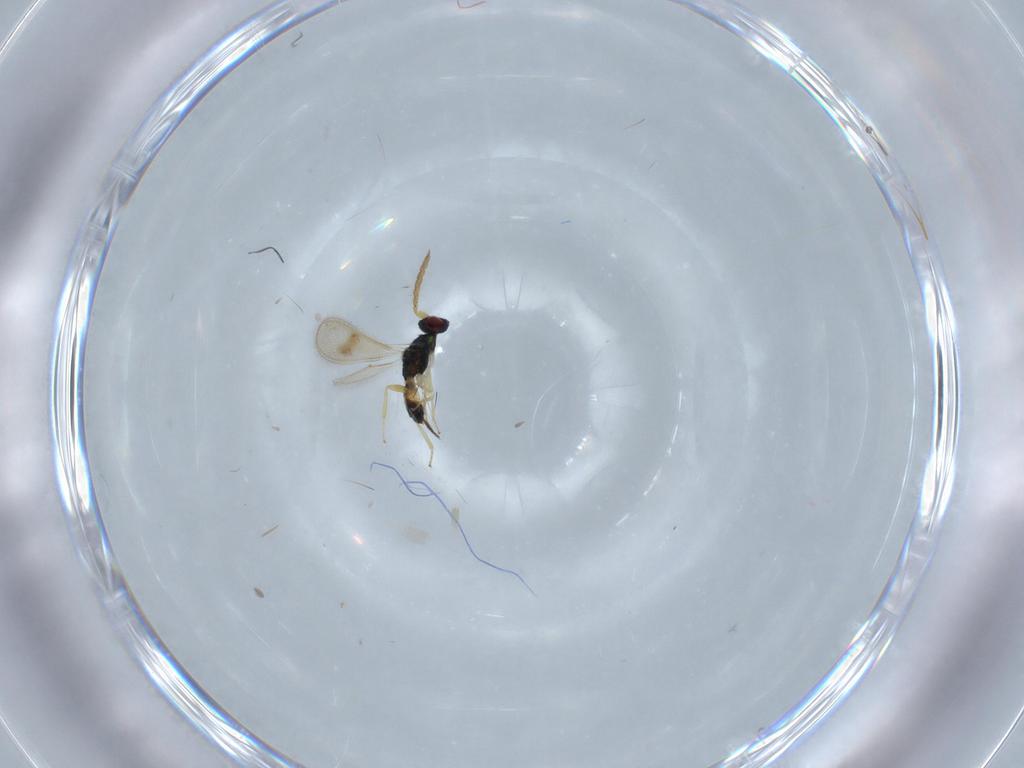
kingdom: Animalia
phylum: Arthropoda
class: Insecta
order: Hymenoptera
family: Eulophidae
